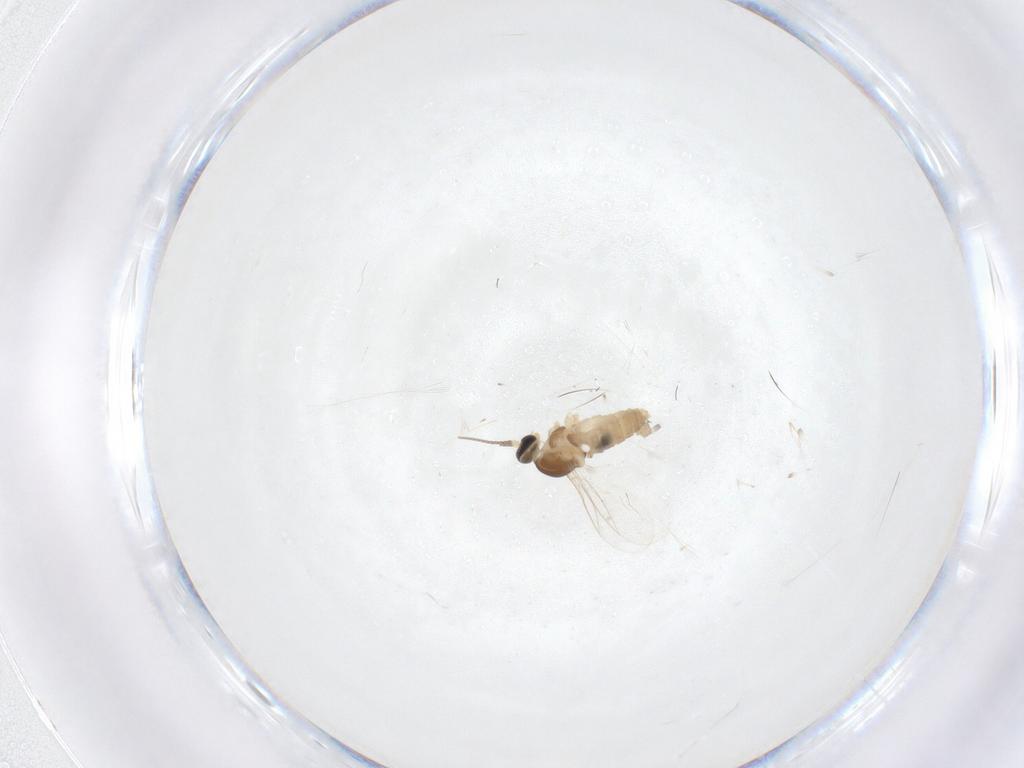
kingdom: Animalia
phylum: Arthropoda
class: Insecta
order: Diptera
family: Cecidomyiidae
